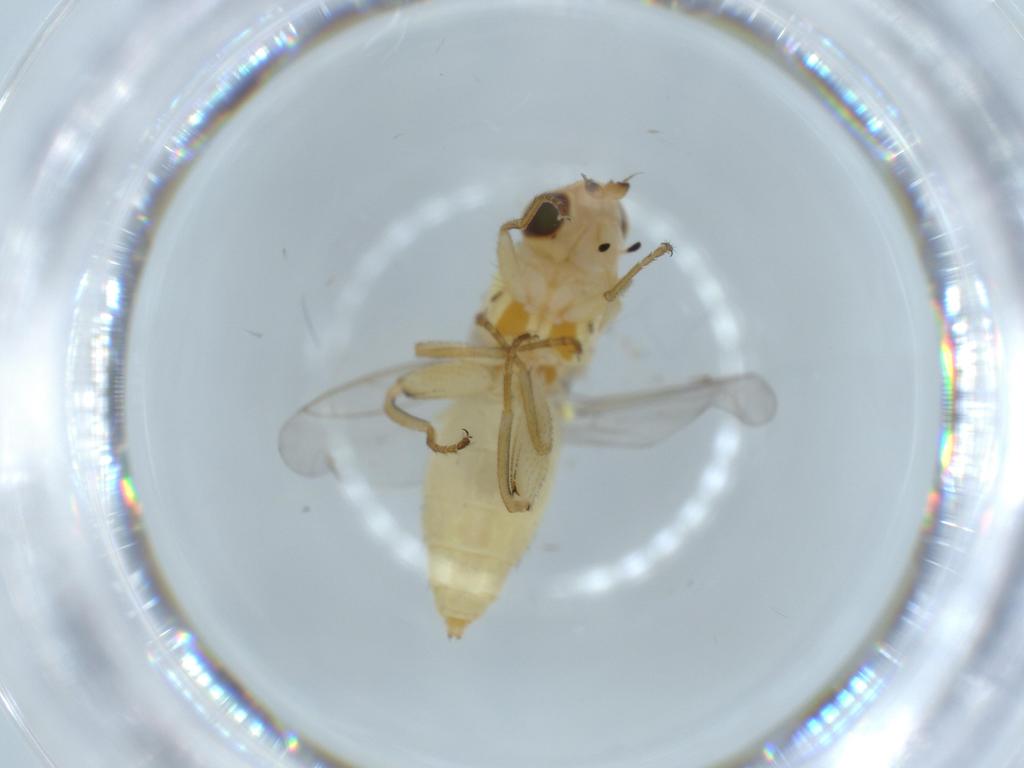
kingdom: Animalia
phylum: Arthropoda
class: Insecta
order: Diptera
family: Chloropidae
